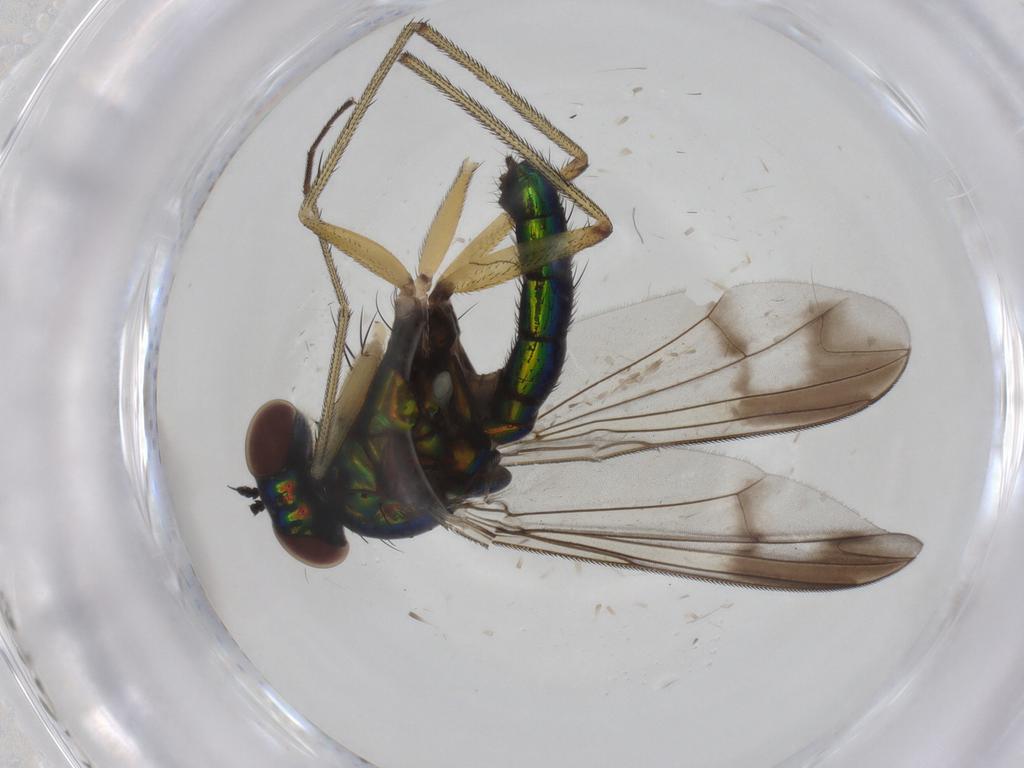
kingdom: Animalia
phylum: Arthropoda
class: Insecta
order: Diptera
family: Dolichopodidae
